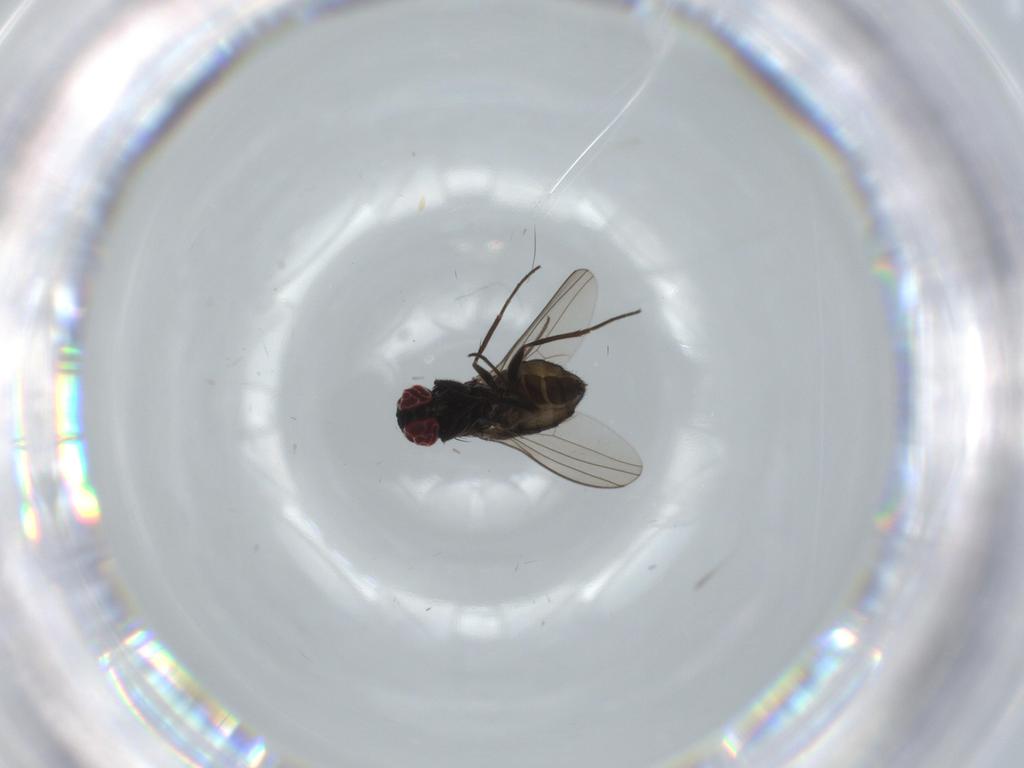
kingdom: Animalia
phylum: Arthropoda
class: Insecta
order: Diptera
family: Dolichopodidae
